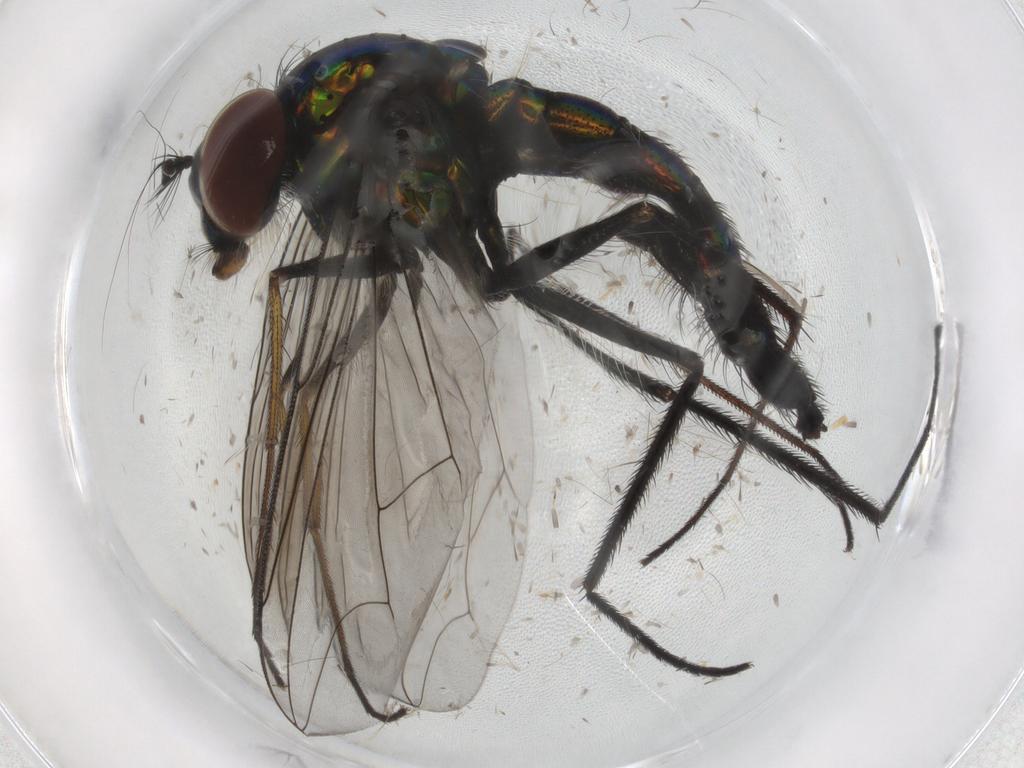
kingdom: Animalia
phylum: Arthropoda
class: Insecta
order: Diptera
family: Dolichopodidae
